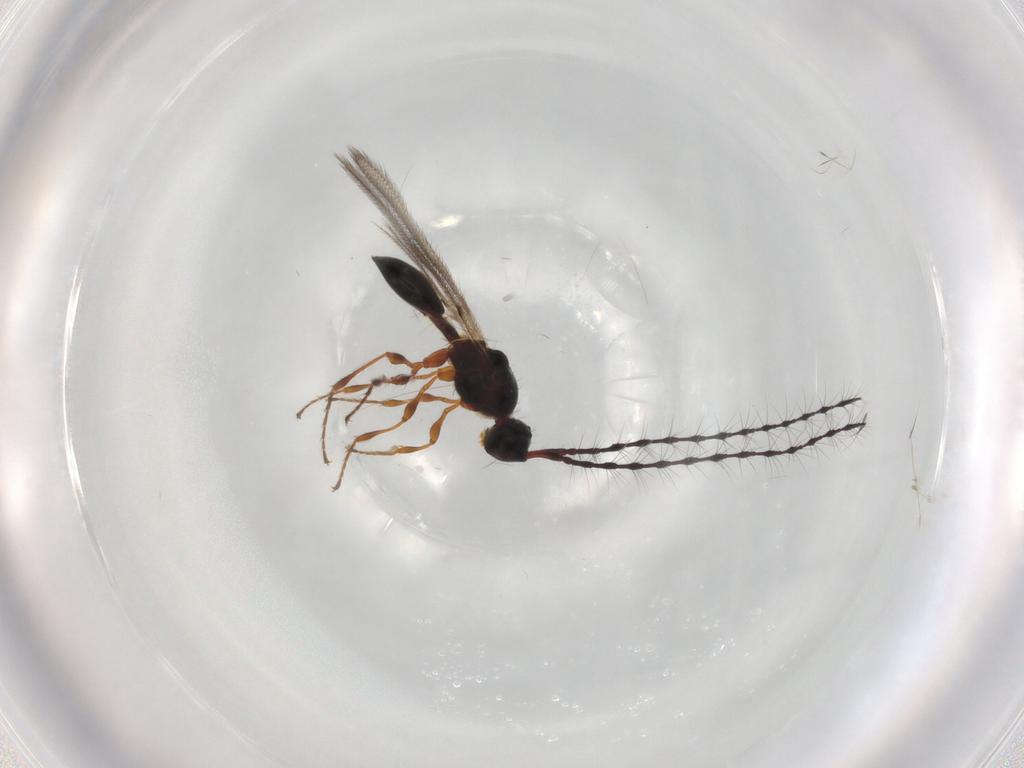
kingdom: Animalia
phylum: Arthropoda
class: Insecta
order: Hymenoptera
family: Diapriidae
